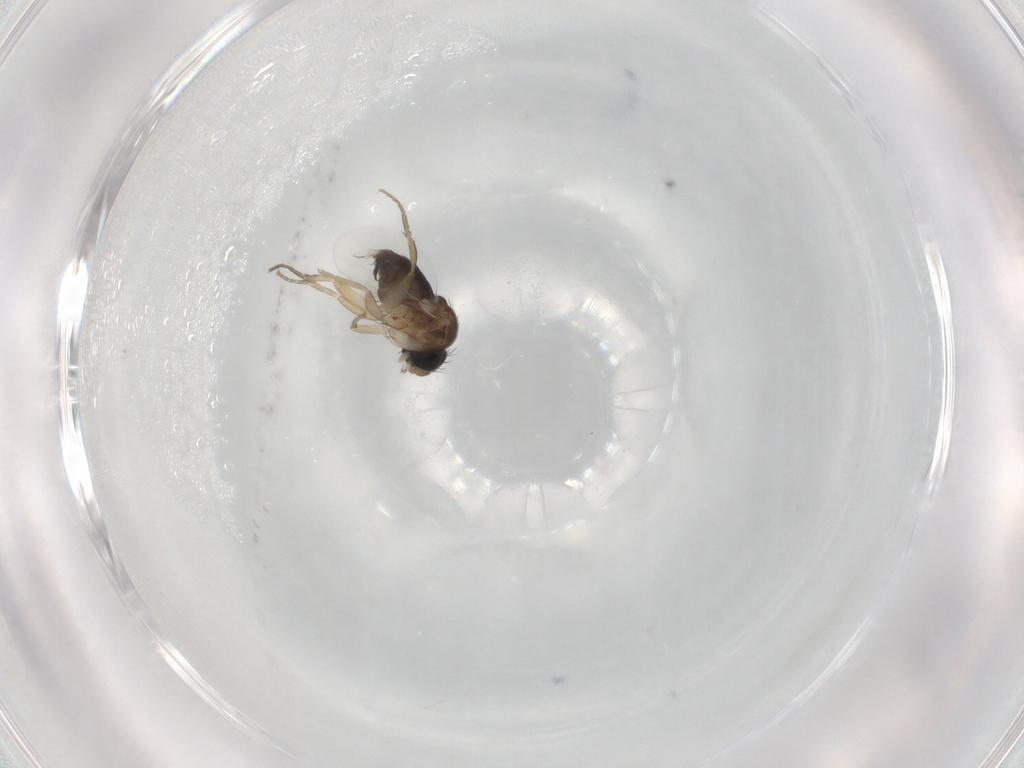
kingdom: Animalia
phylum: Arthropoda
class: Insecta
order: Diptera
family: Phoridae
